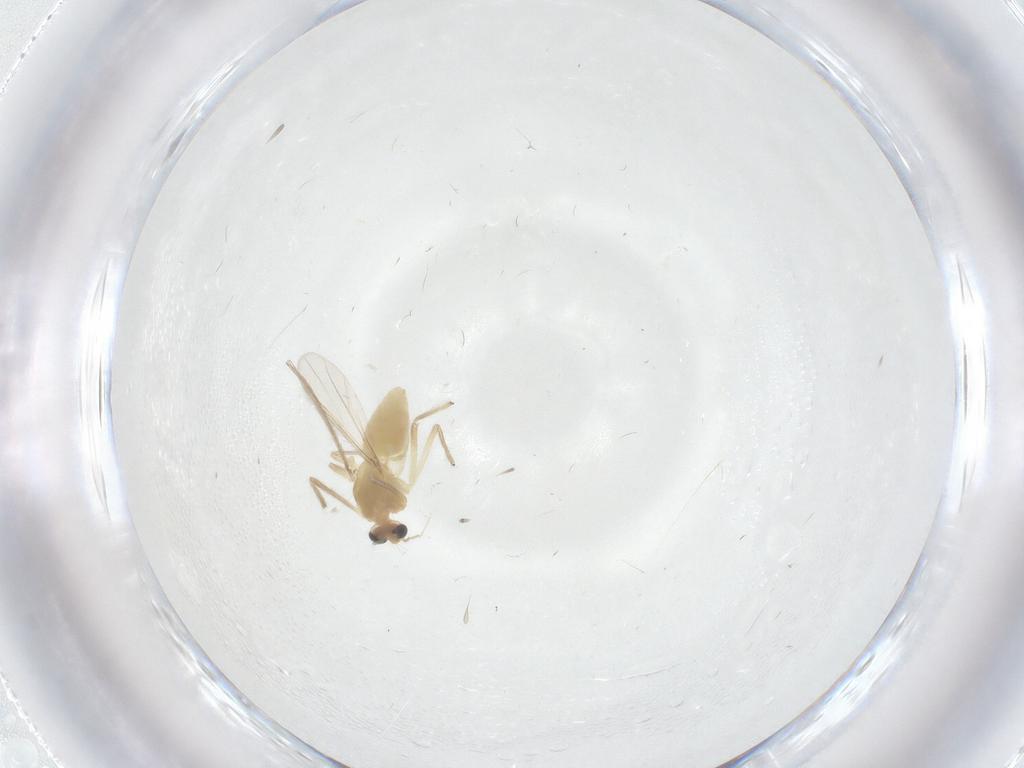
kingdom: Animalia
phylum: Arthropoda
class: Insecta
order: Diptera
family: Chironomidae
